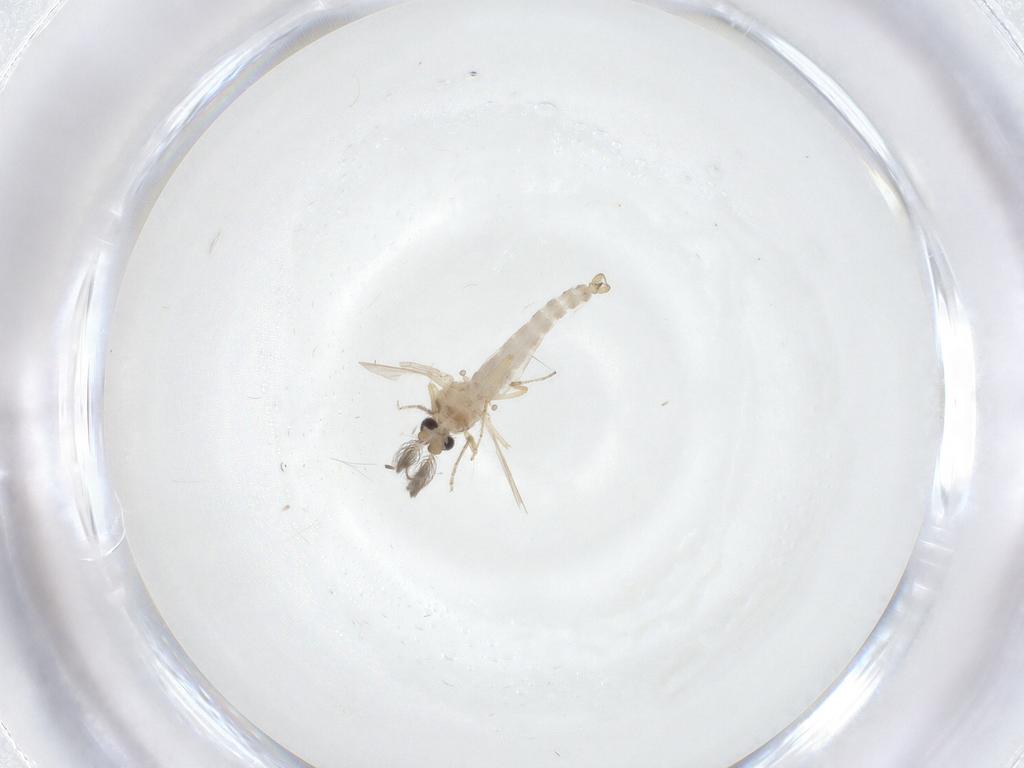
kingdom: Animalia
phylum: Arthropoda
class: Insecta
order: Diptera
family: Ceratopogonidae
